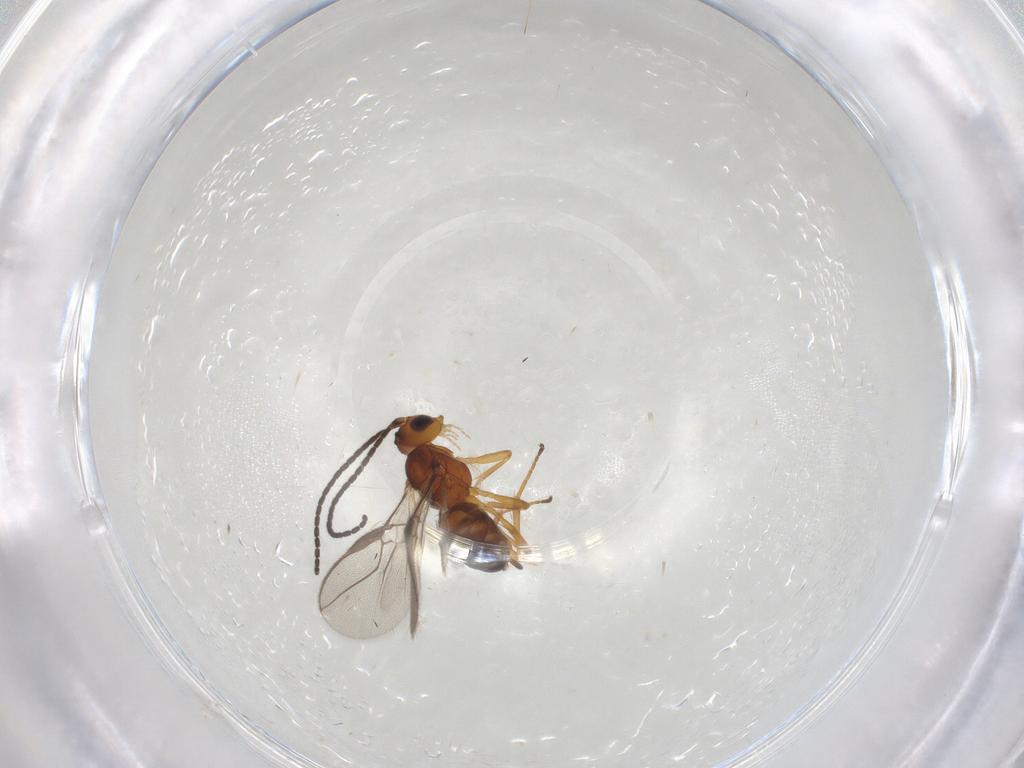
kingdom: Animalia
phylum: Arthropoda
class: Insecta
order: Hymenoptera
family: Braconidae
